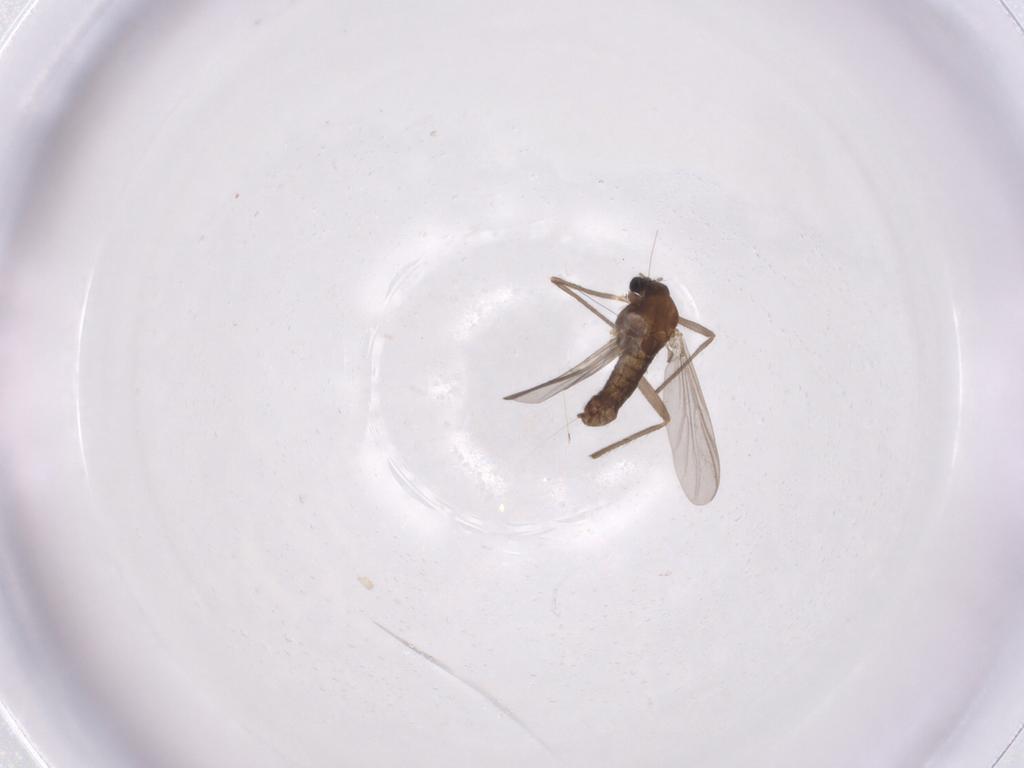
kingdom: Animalia
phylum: Arthropoda
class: Insecta
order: Diptera
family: Chironomidae
